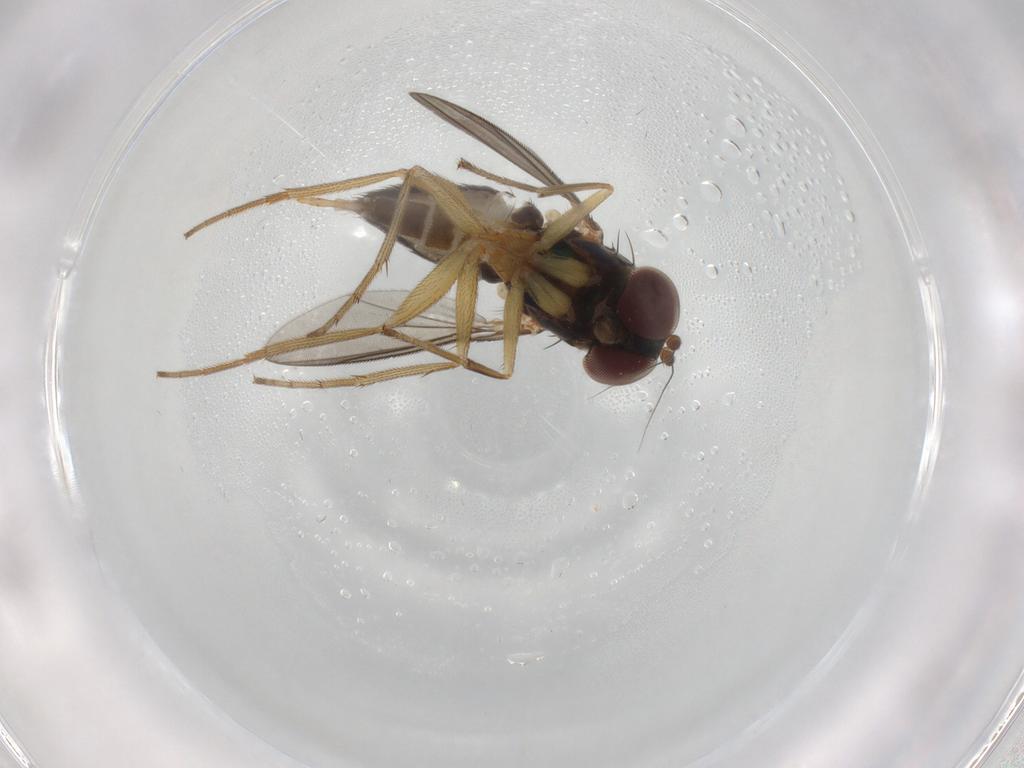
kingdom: Animalia
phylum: Arthropoda
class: Insecta
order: Diptera
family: Dolichopodidae
